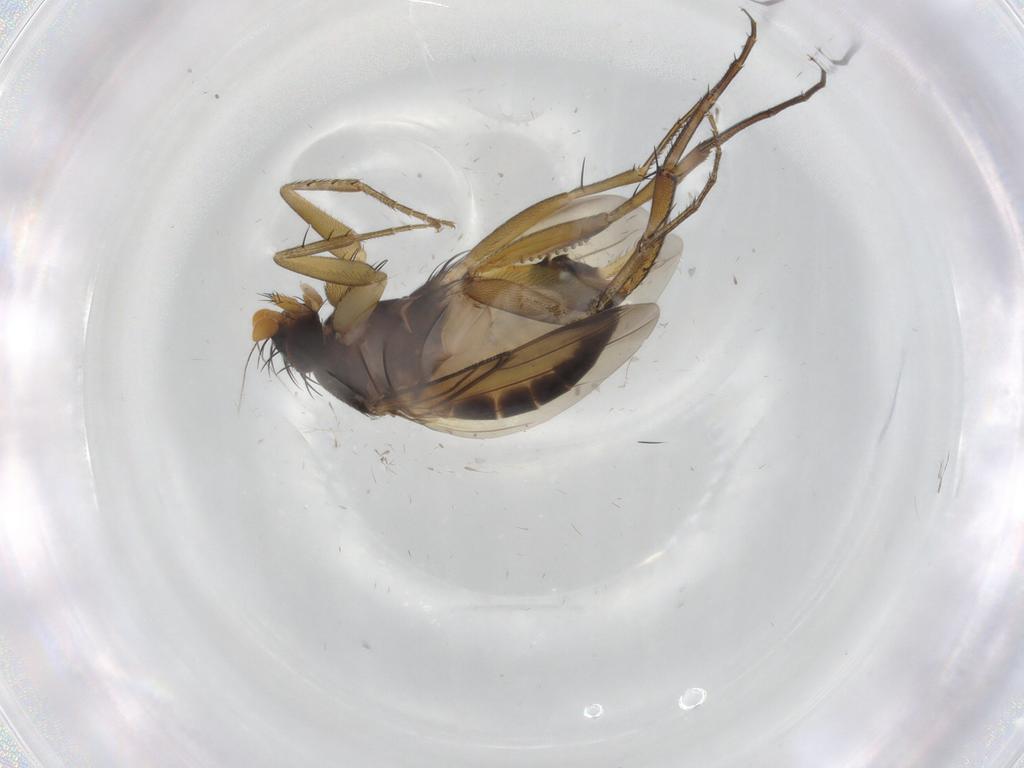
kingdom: Animalia
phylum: Arthropoda
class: Insecta
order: Diptera
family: Phoridae
